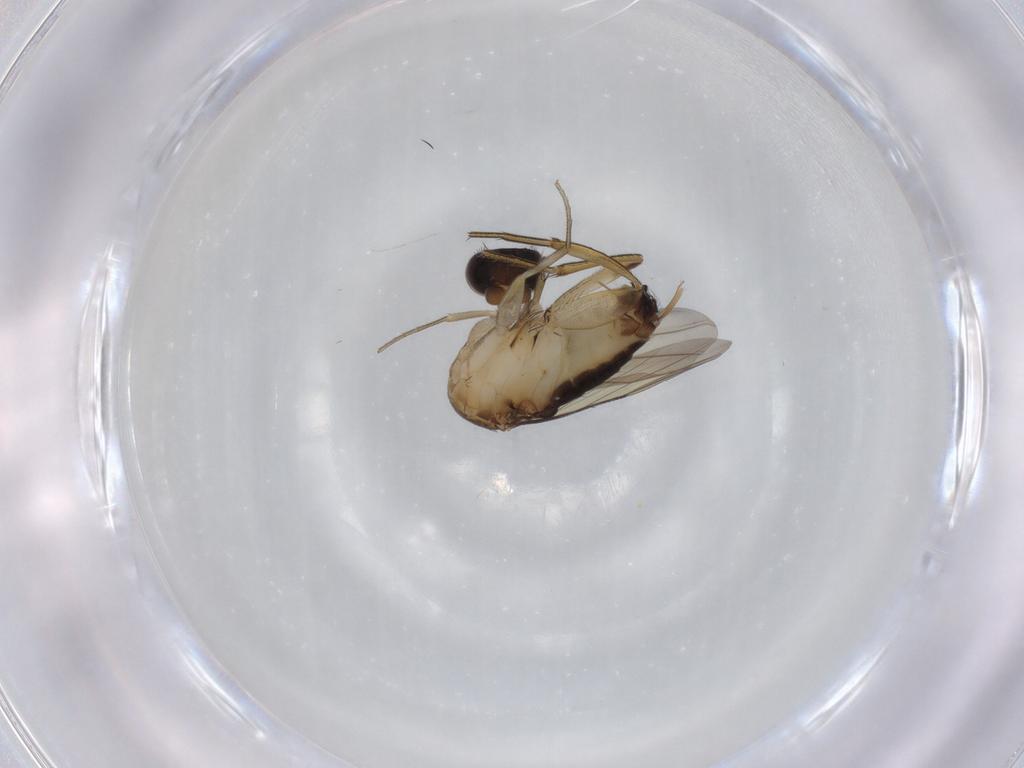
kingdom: Animalia
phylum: Arthropoda
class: Insecta
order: Diptera
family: Phoridae
